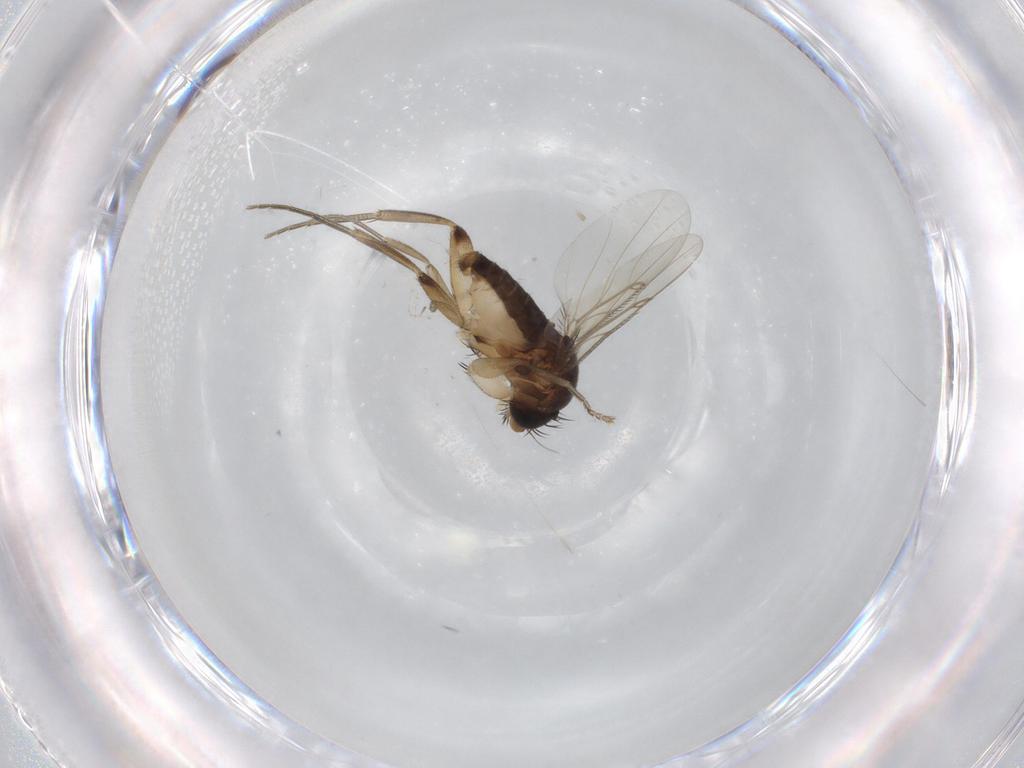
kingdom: Animalia
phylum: Arthropoda
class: Insecta
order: Diptera
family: Phoridae
